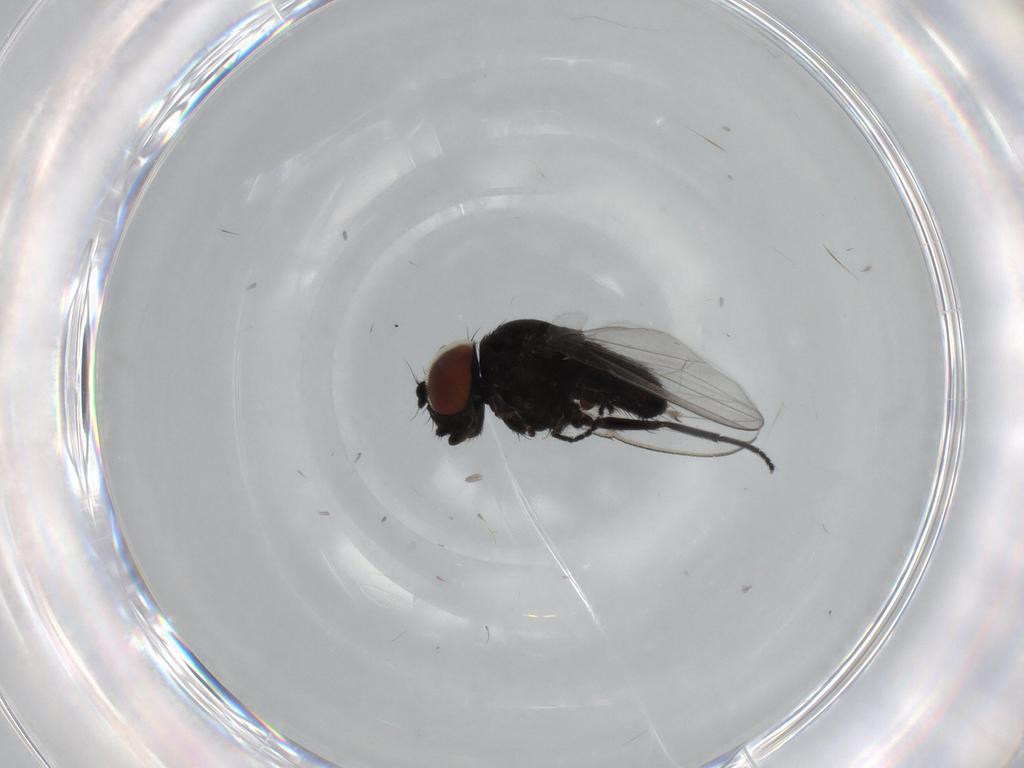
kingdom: Animalia
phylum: Arthropoda
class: Insecta
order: Diptera
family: Milichiidae
